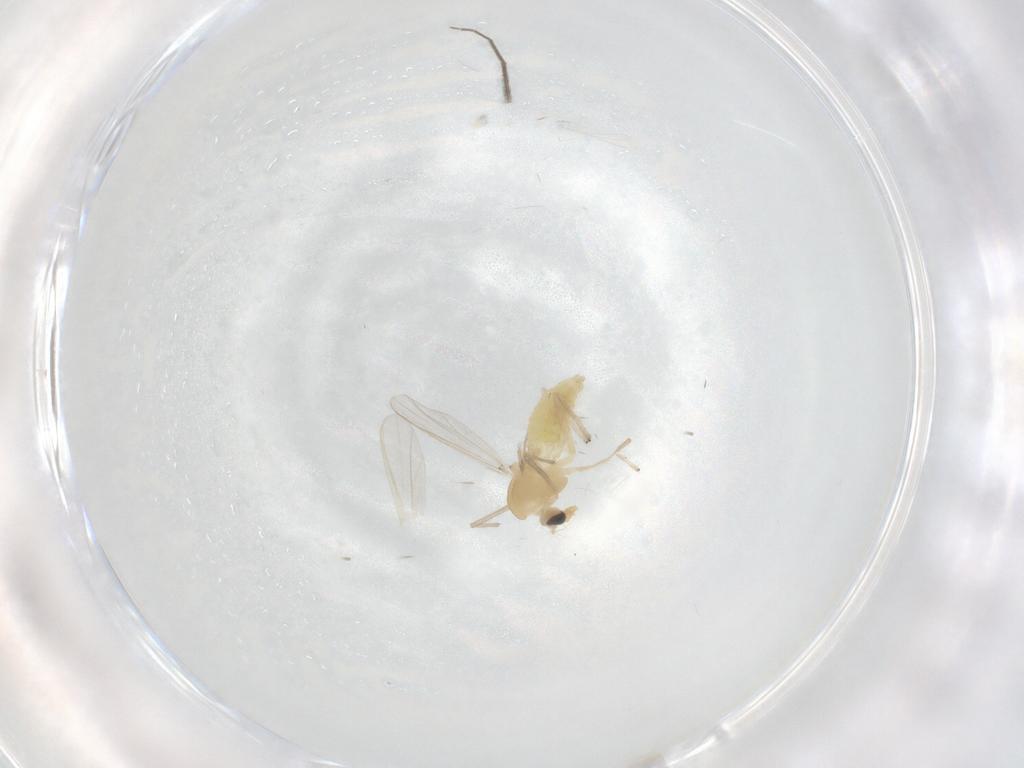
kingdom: Animalia
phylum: Arthropoda
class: Insecta
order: Diptera
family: Chironomidae
